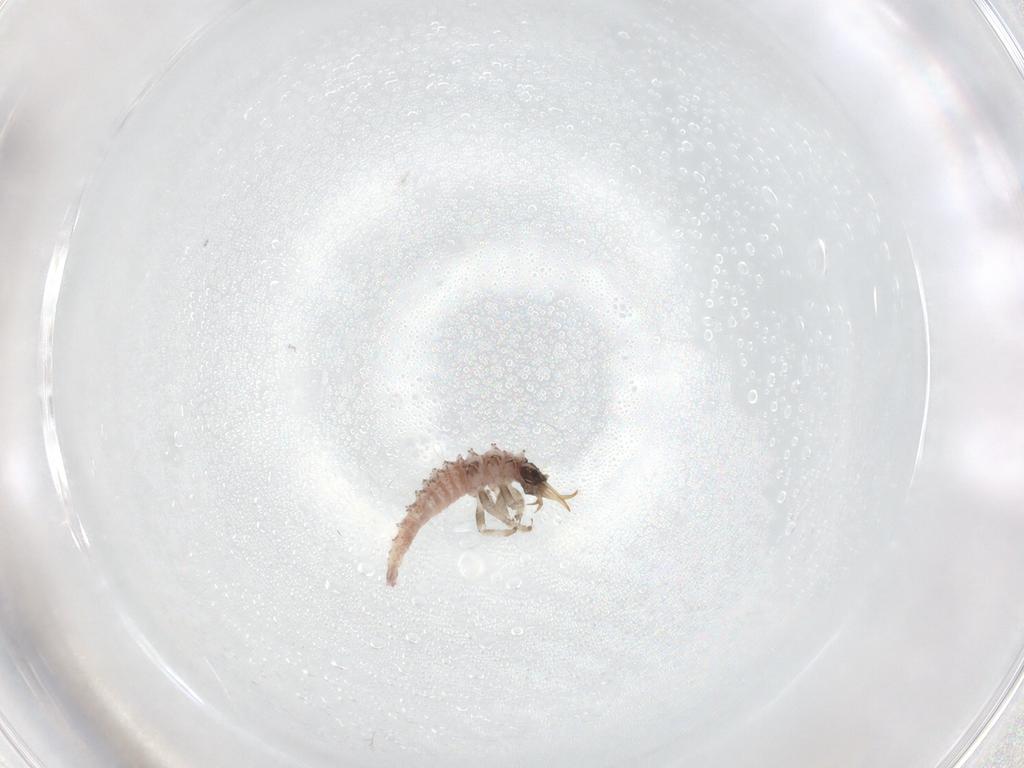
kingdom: Animalia
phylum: Arthropoda
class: Insecta
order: Neuroptera
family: Chrysopidae
